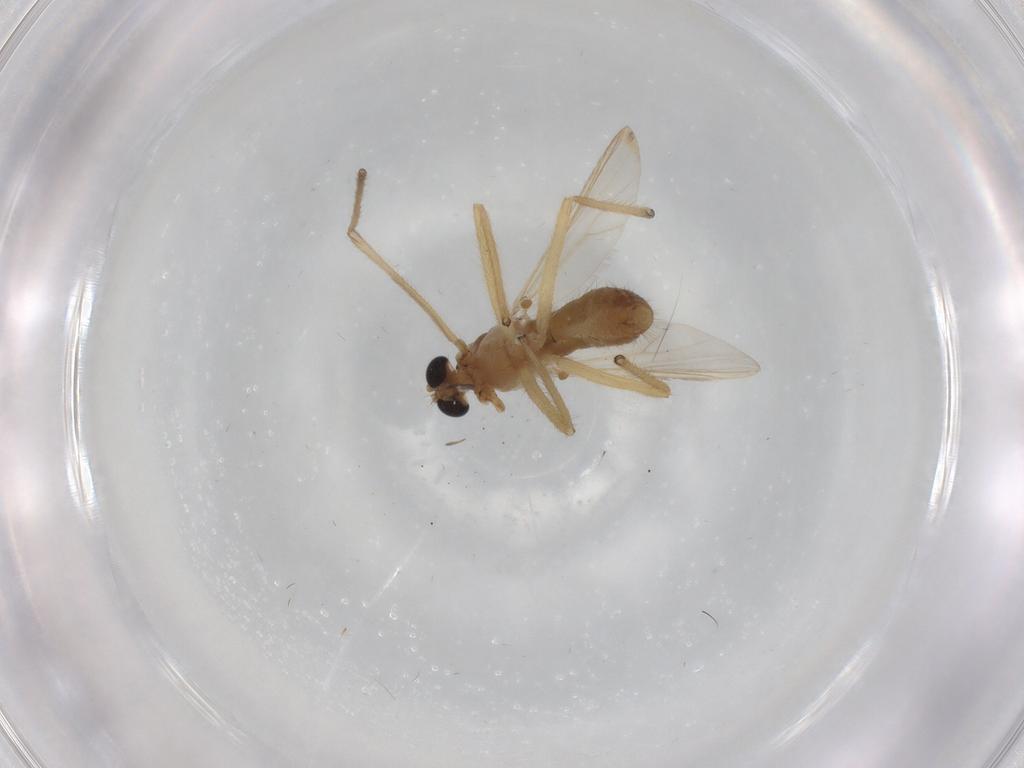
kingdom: Animalia
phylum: Arthropoda
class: Insecta
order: Diptera
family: Chironomidae
